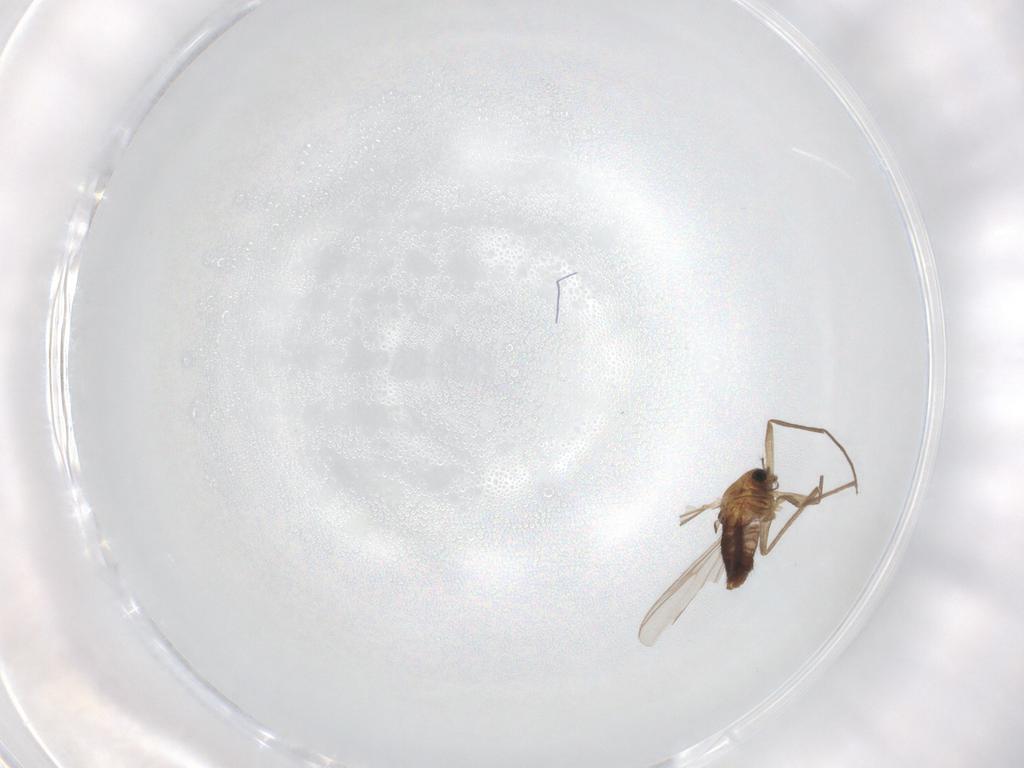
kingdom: Animalia
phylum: Arthropoda
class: Insecta
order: Diptera
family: Chironomidae
